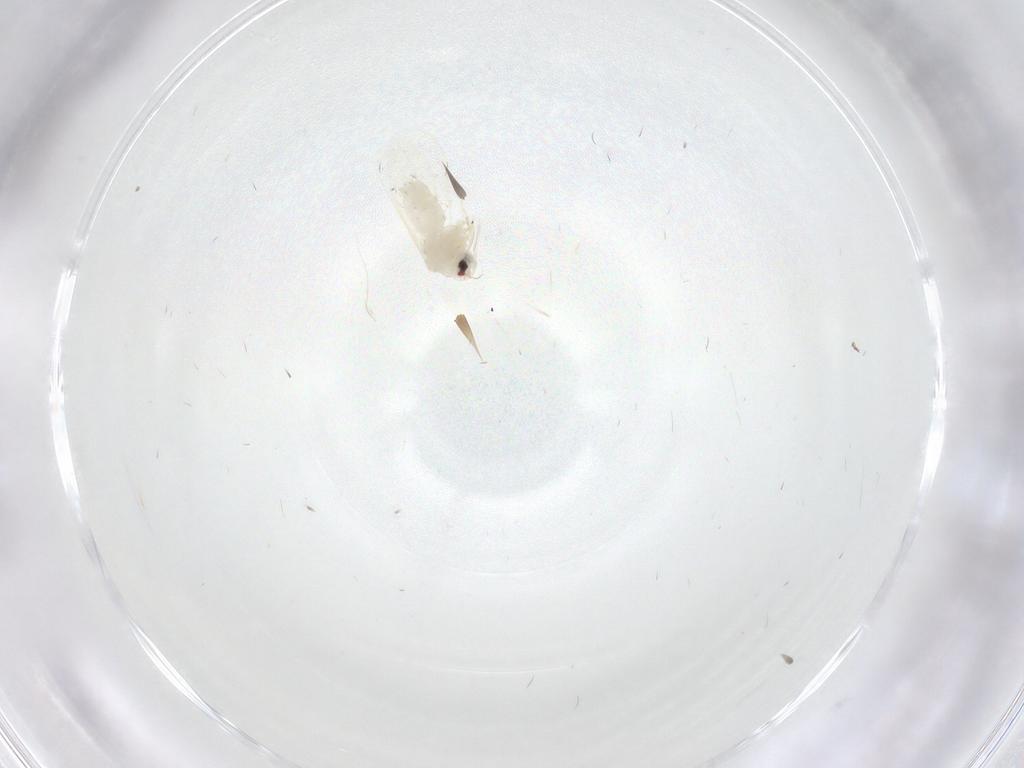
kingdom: Animalia
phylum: Arthropoda
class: Insecta
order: Hemiptera
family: Aleyrodidae
